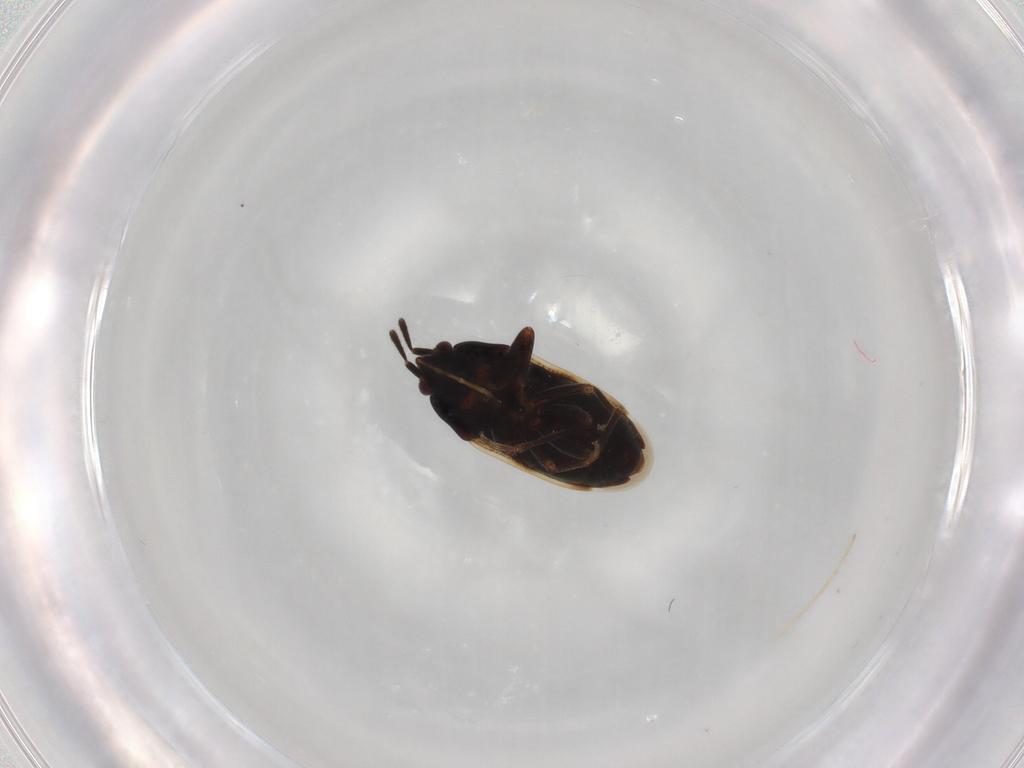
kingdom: Animalia
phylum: Arthropoda
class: Insecta
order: Hemiptera
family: Rhyparochromidae
